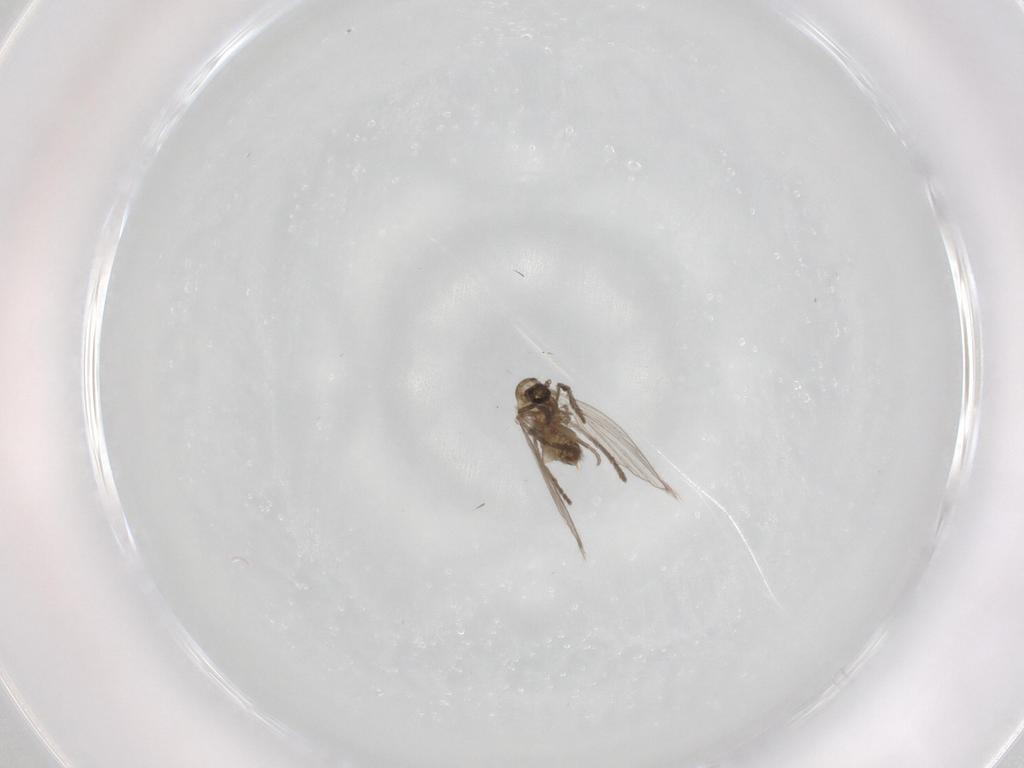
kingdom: Animalia
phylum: Arthropoda
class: Insecta
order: Diptera
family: Psychodidae
